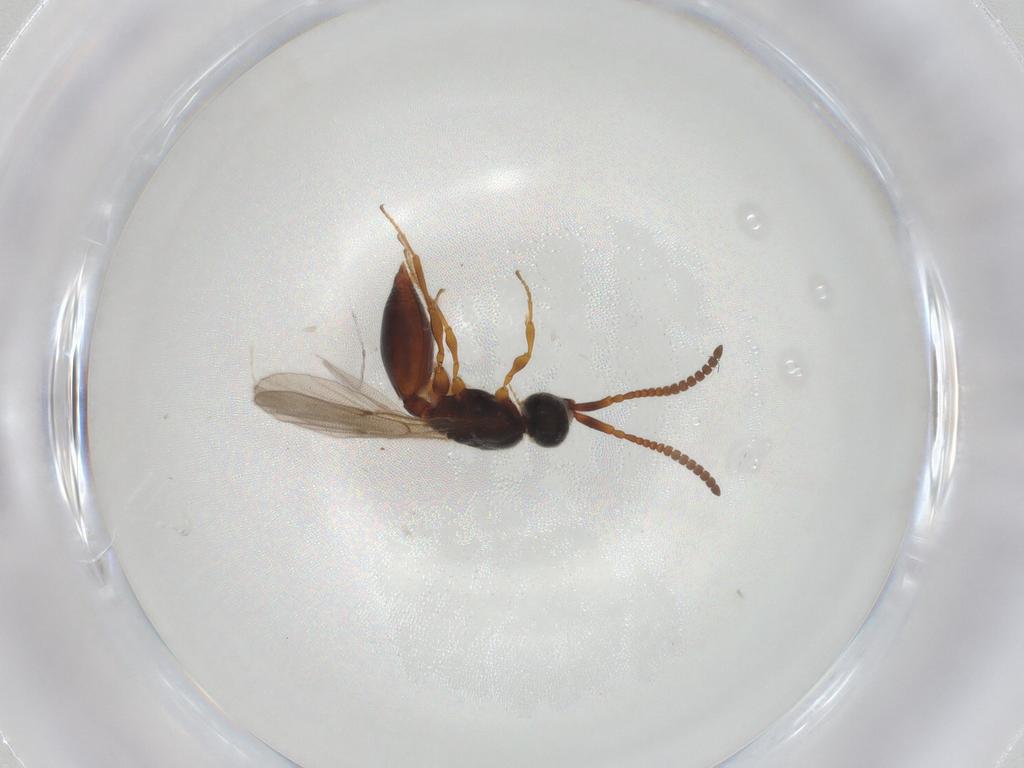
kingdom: Animalia
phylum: Arthropoda
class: Insecta
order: Hymenoptera
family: Diapriidae
